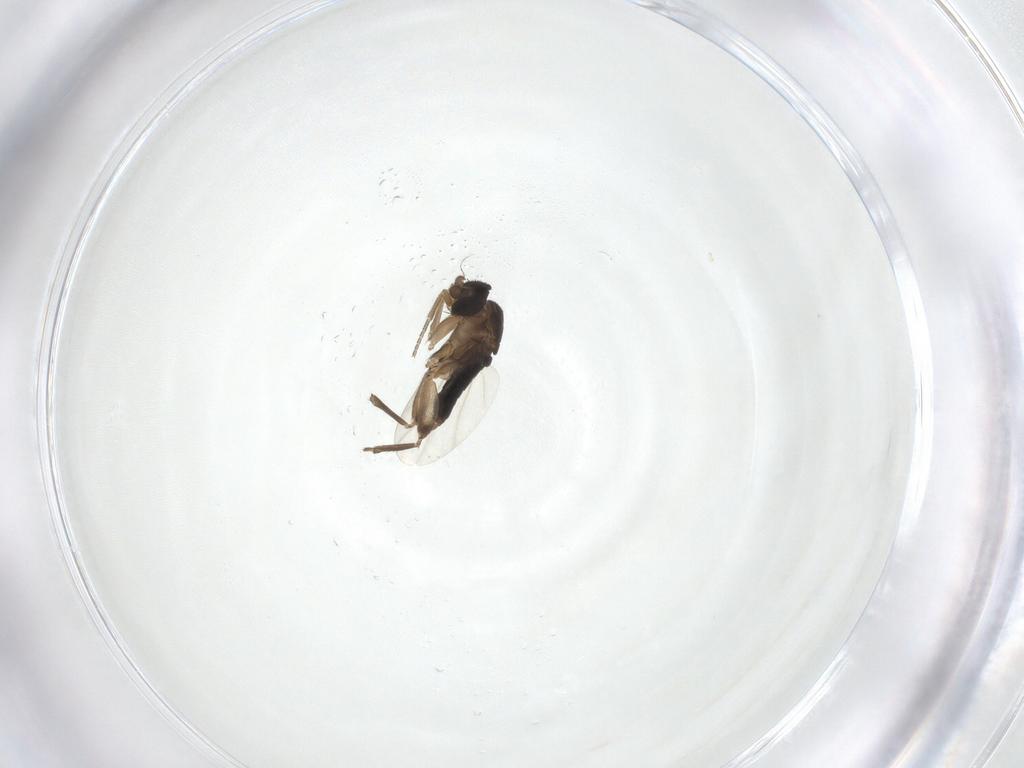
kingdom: Animalia
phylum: Arthropoda
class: Insecta
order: Diptera
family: Phoridae
